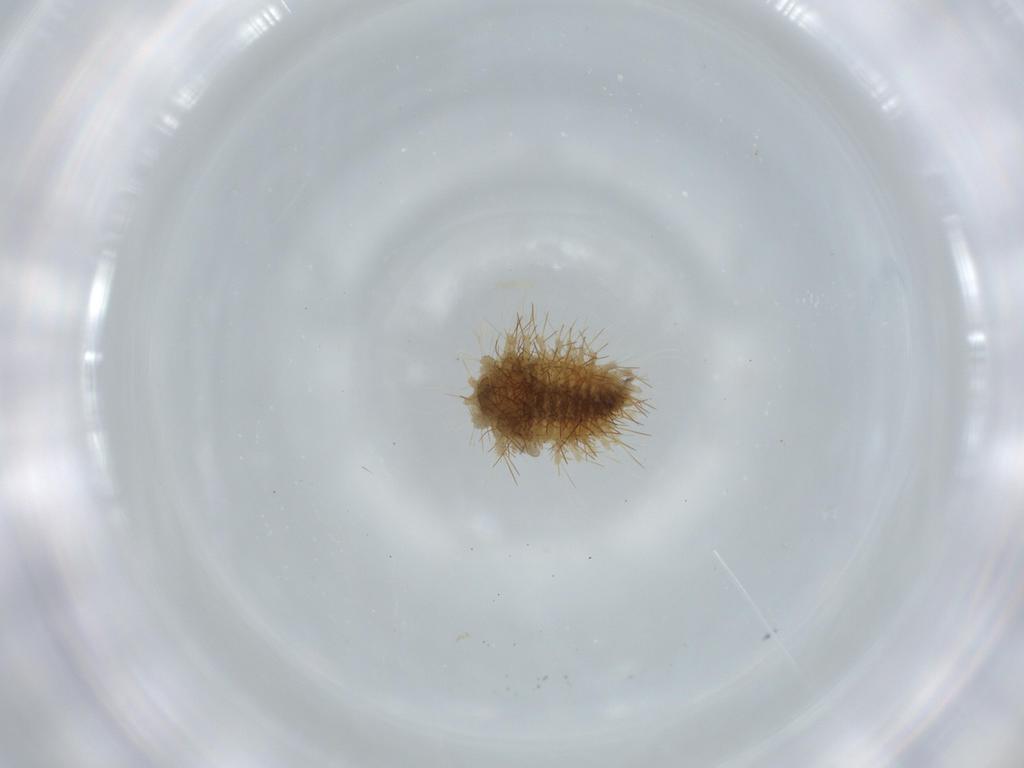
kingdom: Animalia
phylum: Arthropoda
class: Insecta
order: Coleoptera
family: Coccinellidae
